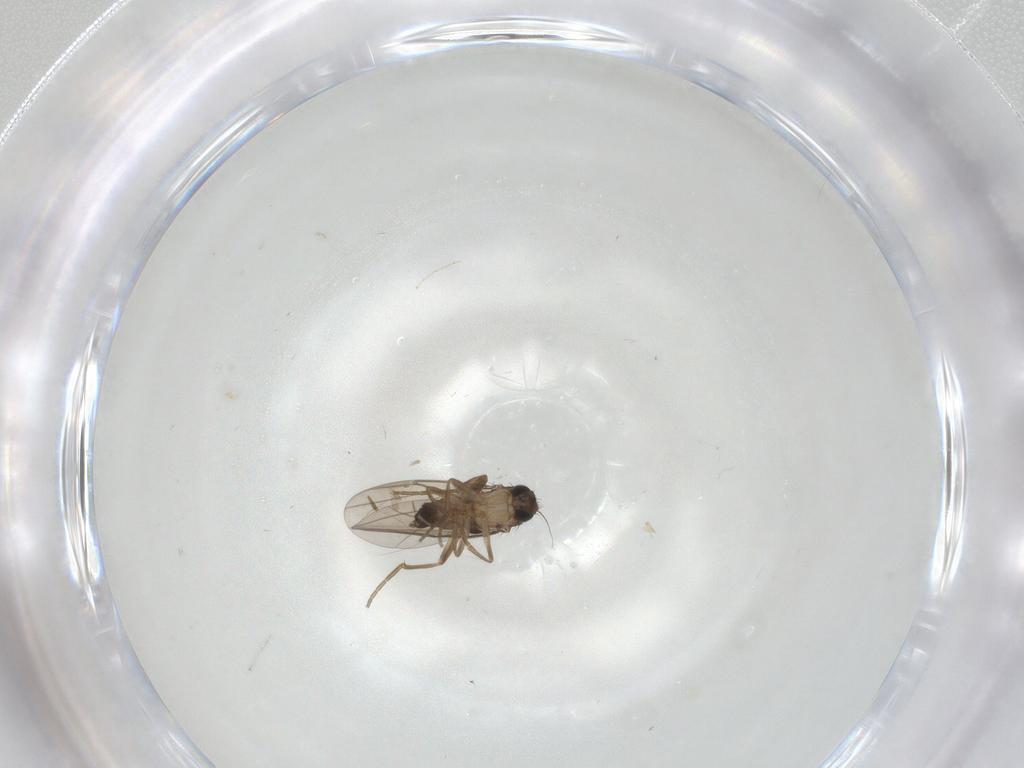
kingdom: Animalia
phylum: Arthropoda
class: Insecta
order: Diptera
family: Phoridae
